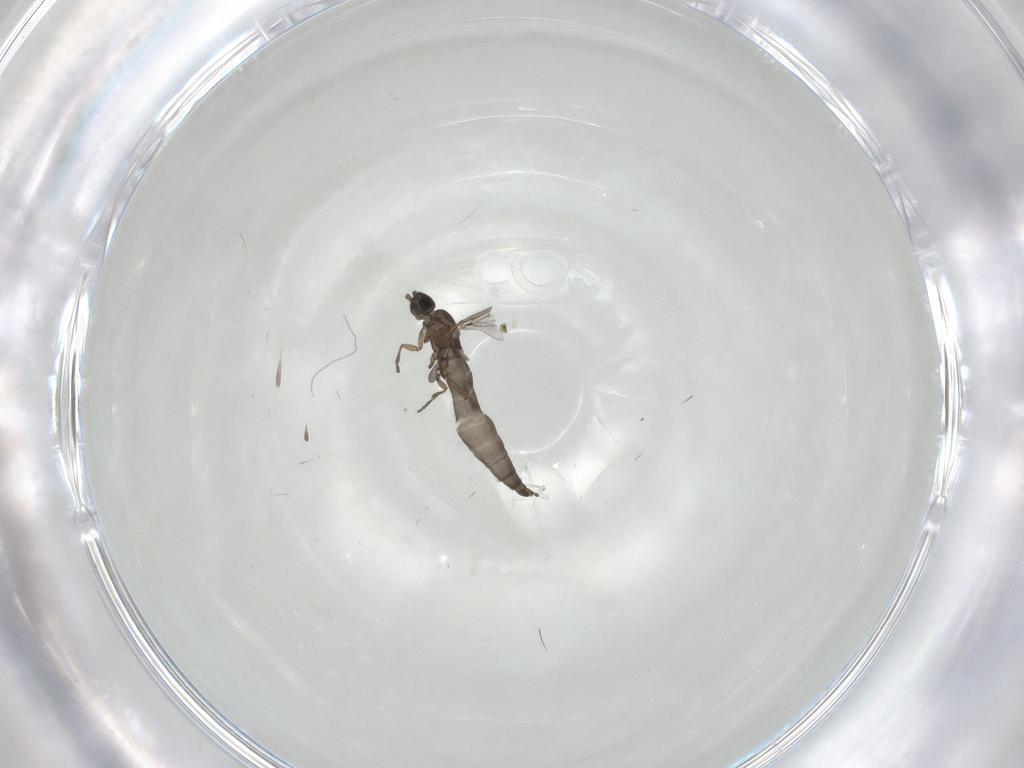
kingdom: Animalia
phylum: Arthropoda
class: Insecta
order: Diptera
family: Sciaridae
